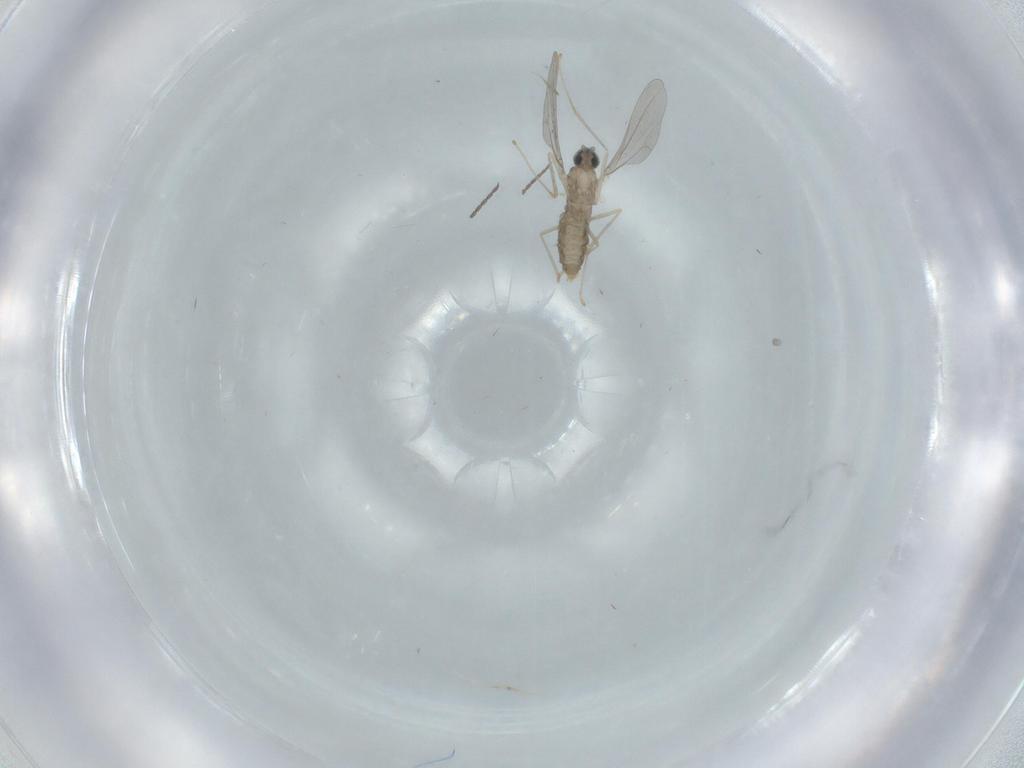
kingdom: Animalia
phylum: Arthropoda
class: Insecta
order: Diptera
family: Cecidomyiidae
